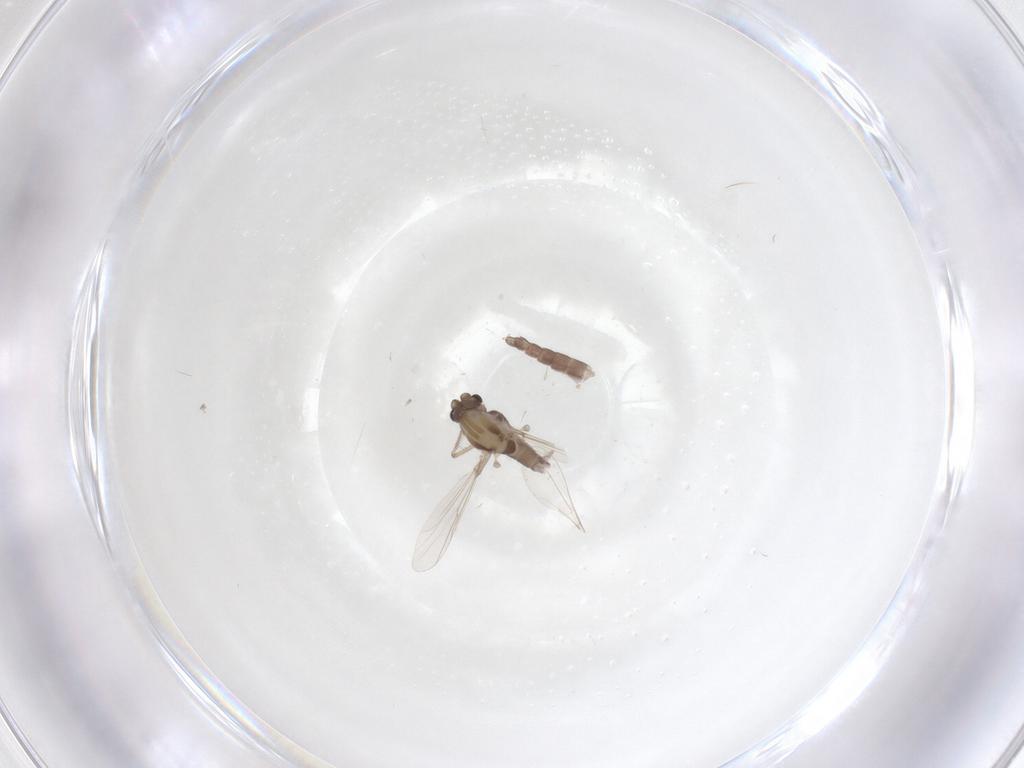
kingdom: Animalia
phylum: Arthropoda
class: Insecta
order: Diptera
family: Chironomidae
